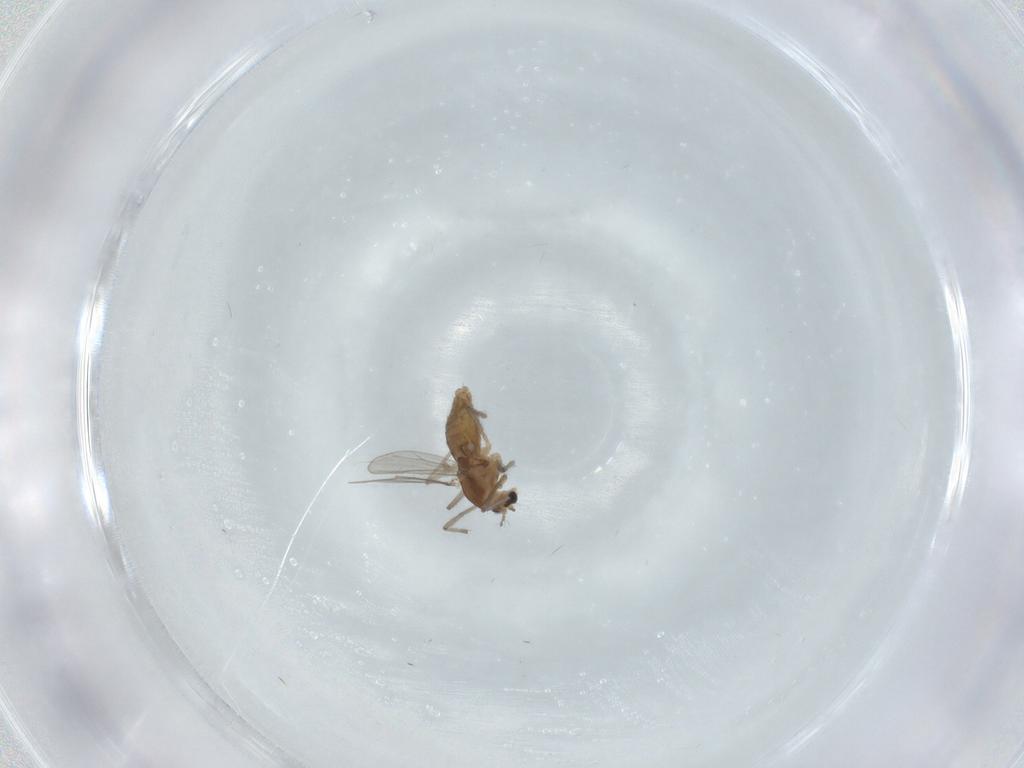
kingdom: Animalia
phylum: Arthropoda
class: Insecta
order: Diptera
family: Chironomidae
